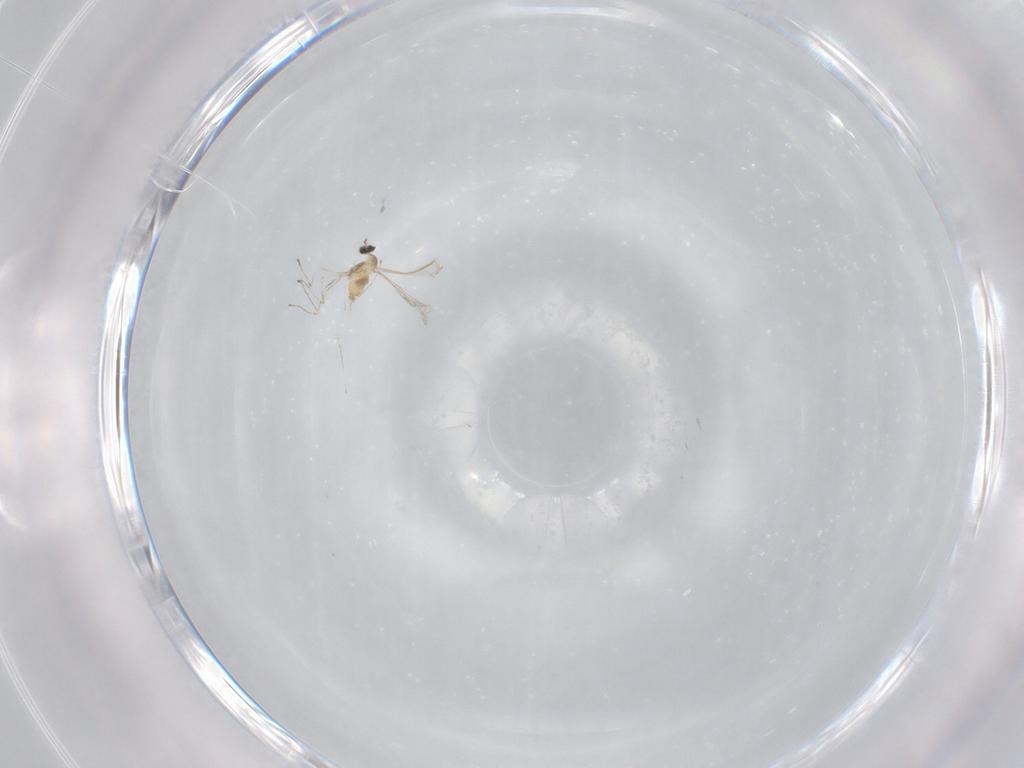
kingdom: Animalia
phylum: Arthropoda
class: Insecta
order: Diptera
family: Cecidomyiidae
